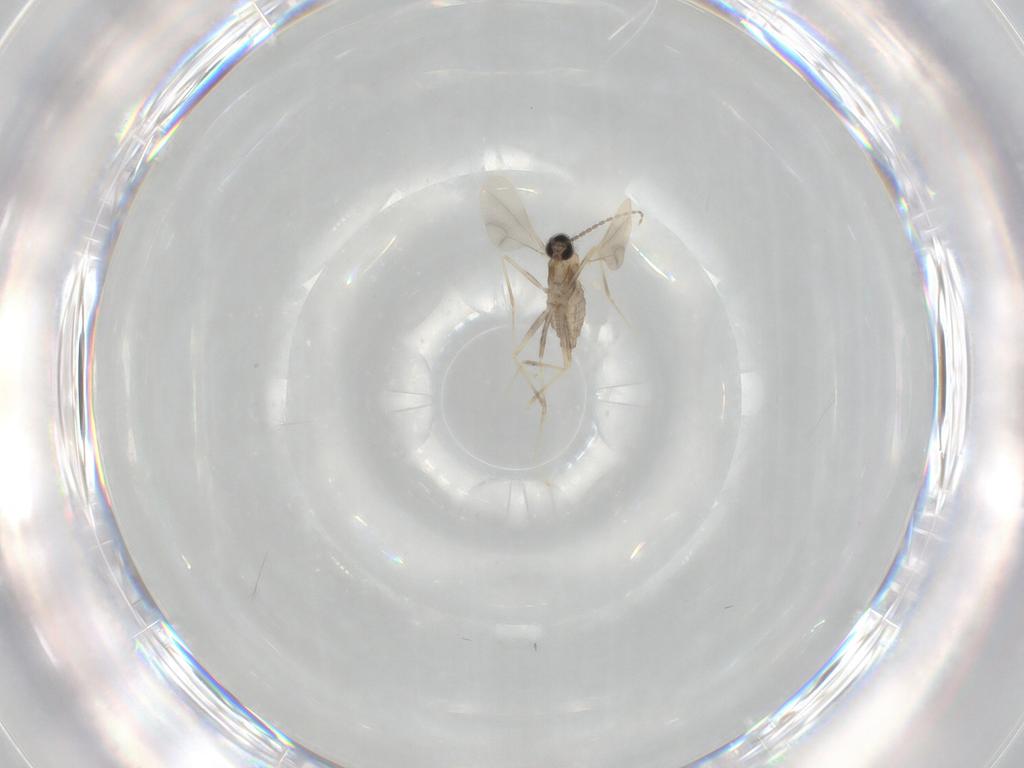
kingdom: Animalia
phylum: Arthropoda
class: Insecta
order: Diptera
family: Cecidomyiidae
